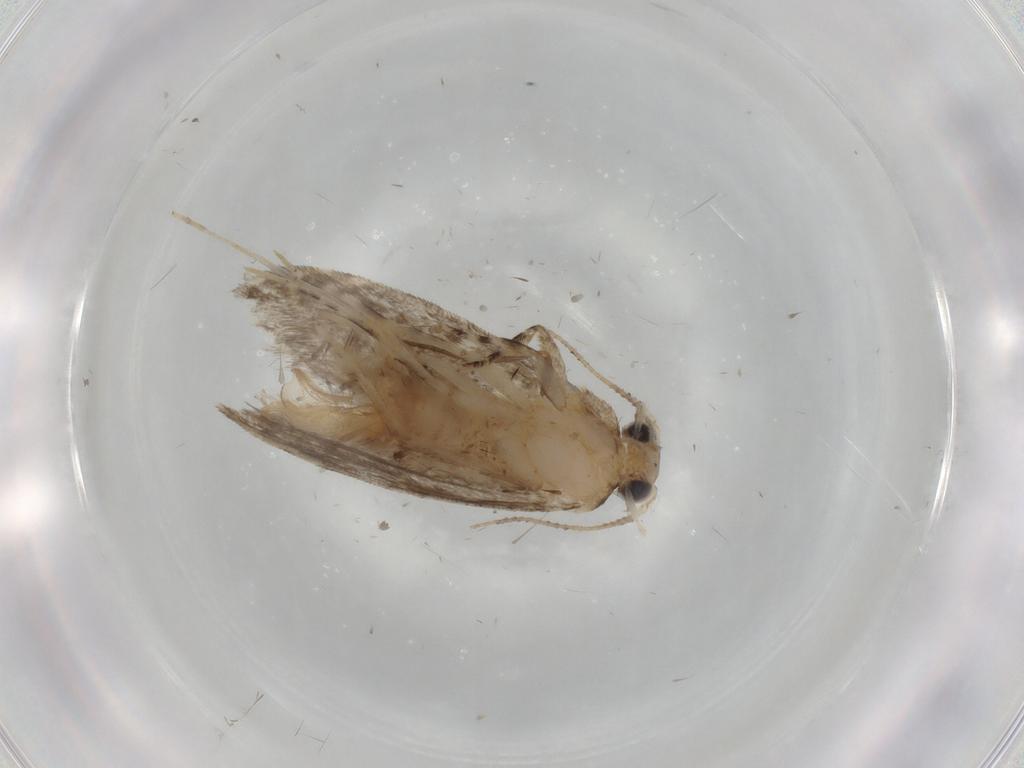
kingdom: Animalia
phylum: Arthropoda
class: Insecta
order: Lepidoptera
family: Tineidae
